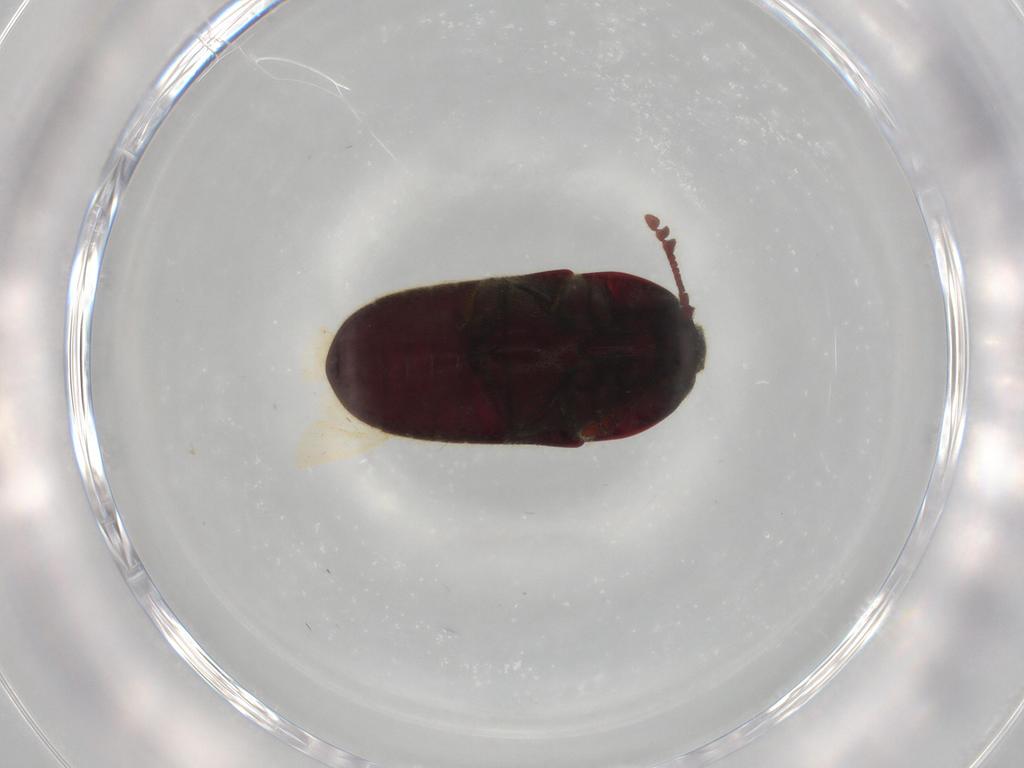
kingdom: Animalia
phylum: Arthropoda
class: Insecta
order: Coleoptera
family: Throscidae
